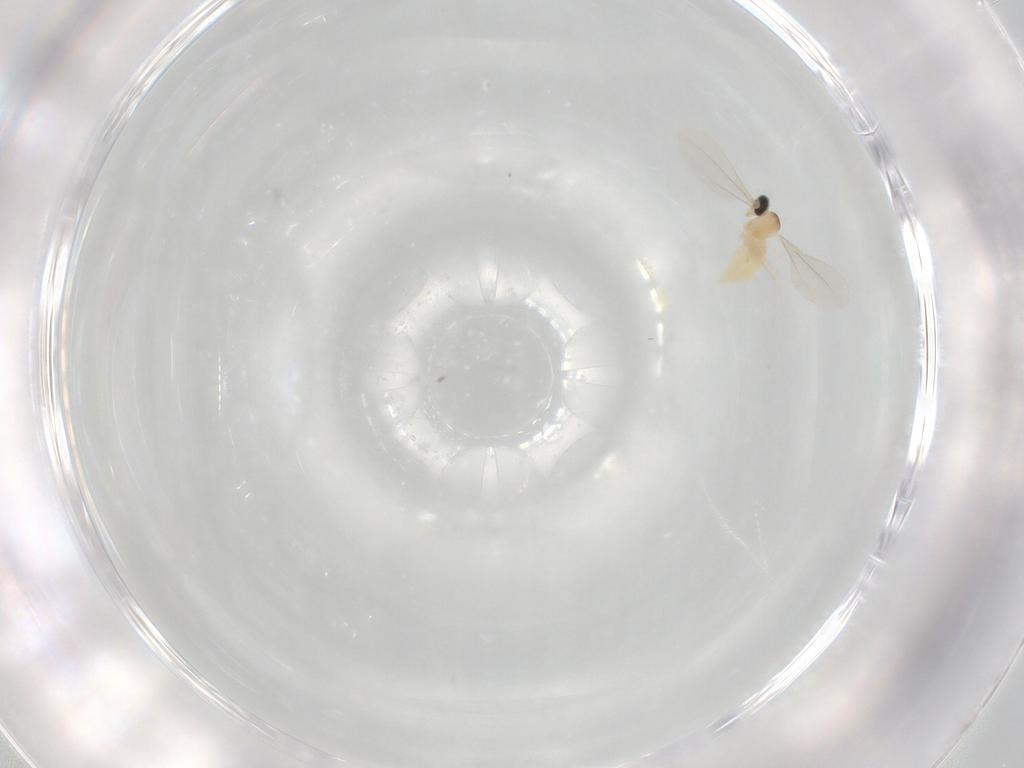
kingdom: Animalia
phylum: Arthropoda
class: Insecta
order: Diptera
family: Cecidomyiidae
